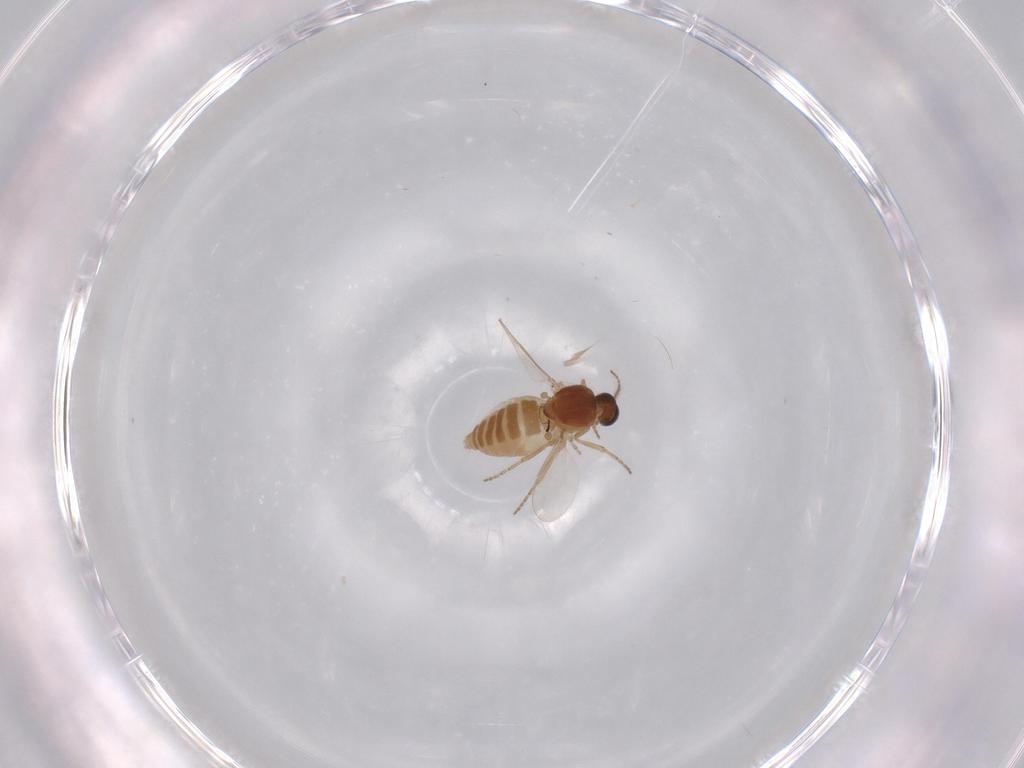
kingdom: Animalia
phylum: Arthropoda
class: Insecta
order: Diptera
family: Ceratopogonidae
